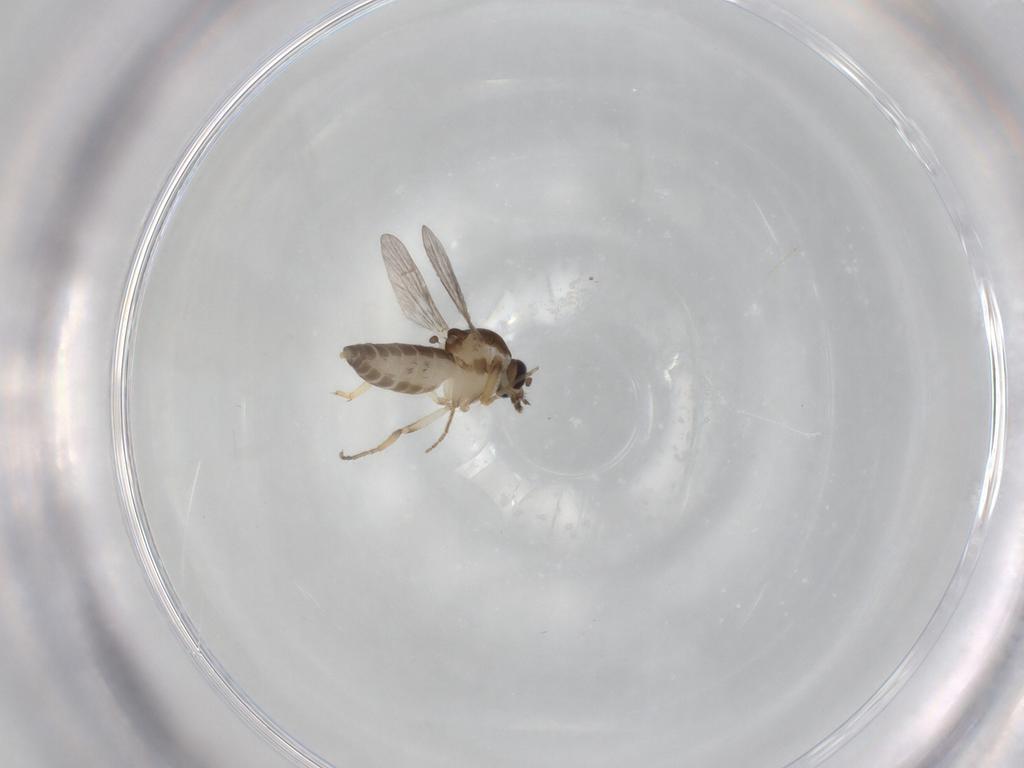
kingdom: Animalia
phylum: Arthropoda
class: Insecta
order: Diptera
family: Ceratopogonidae
